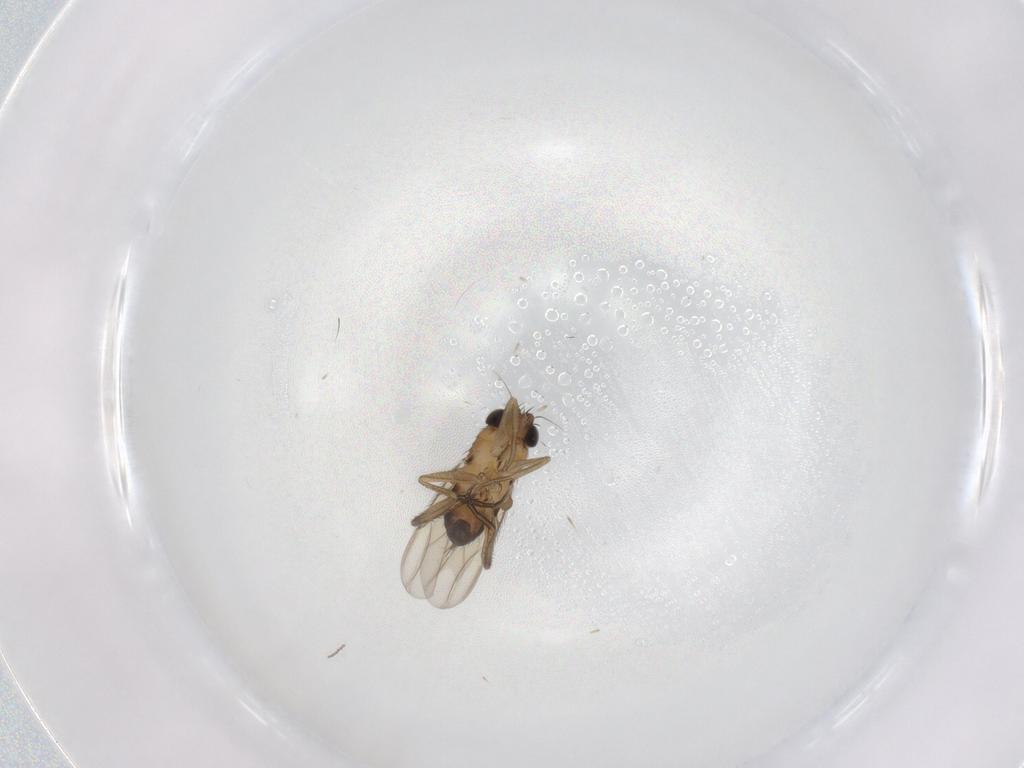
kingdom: Animalia
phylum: Arthropoda
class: Insecta
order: Diptera
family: Phoridae
